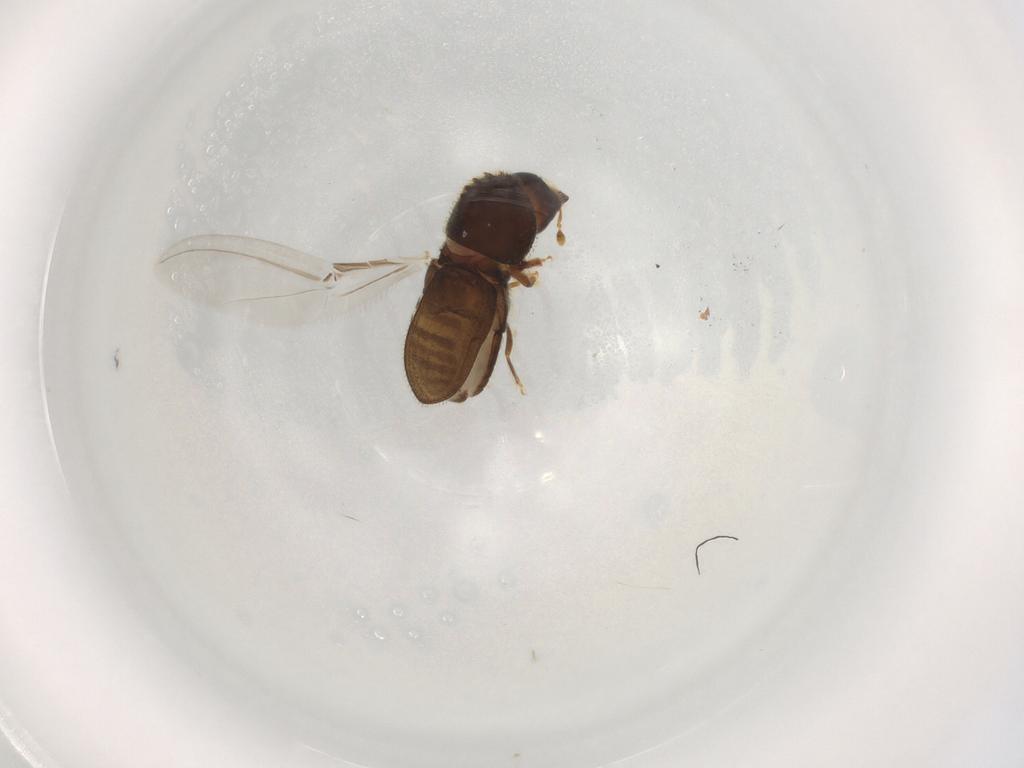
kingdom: Animalia
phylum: Arthropoda
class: Insecta
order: Coleoptera
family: Curculionidae
